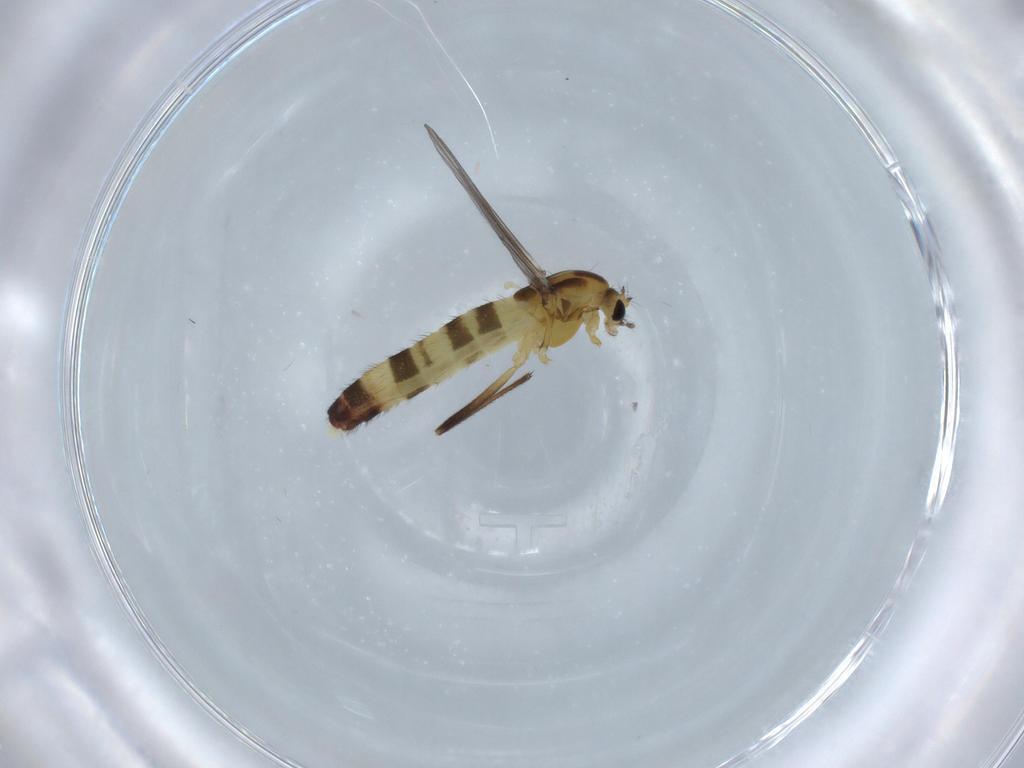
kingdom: Animalia
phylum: Arthropoda
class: Insecta
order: Diptera
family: Chironomidae
